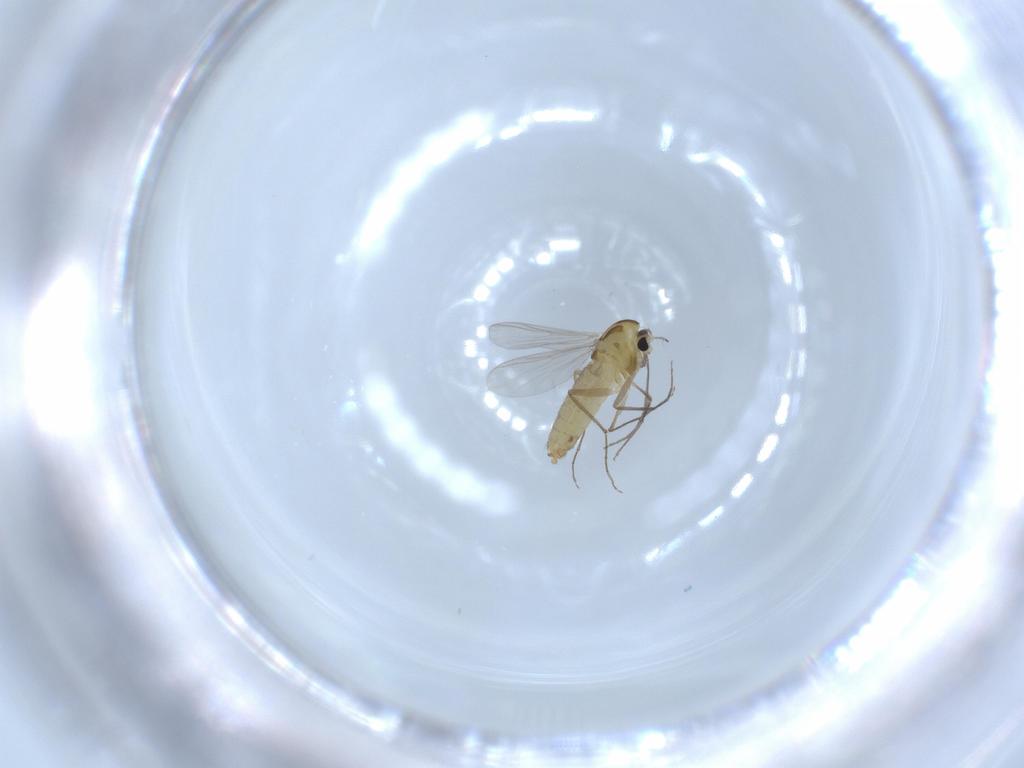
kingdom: Animalia
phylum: Arthropoda
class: Insecta
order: Diptera
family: Chironomidae
